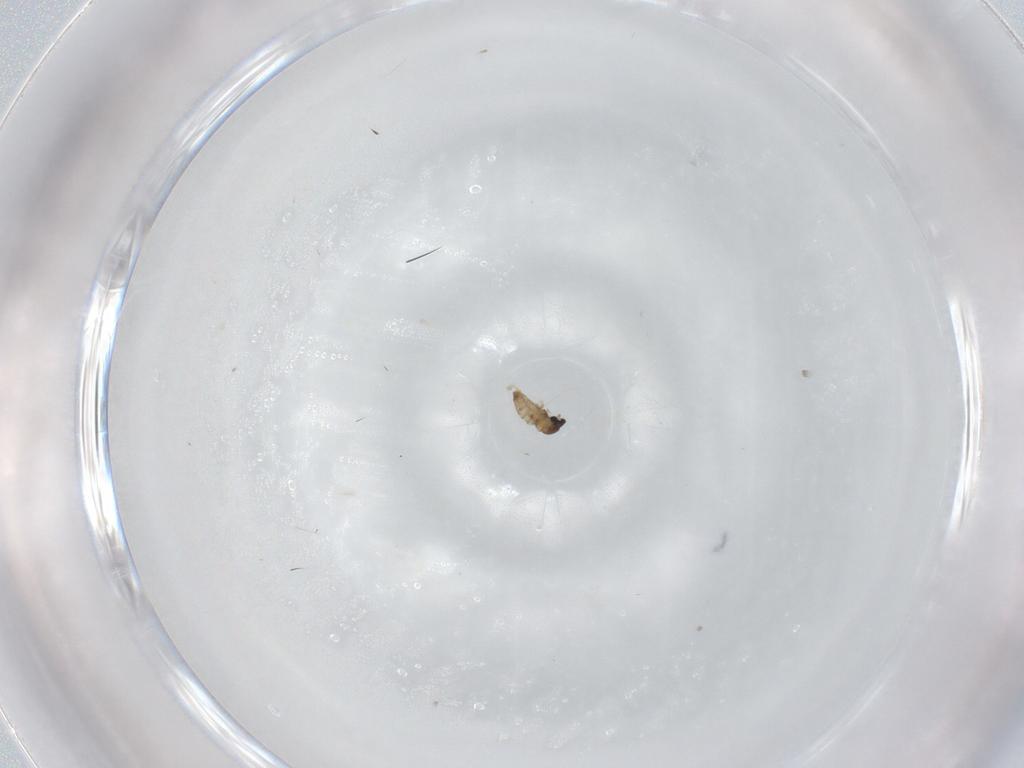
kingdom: Animalia
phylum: Arthropoda
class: Insecta
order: Diptera
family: Cecidomyiidae
